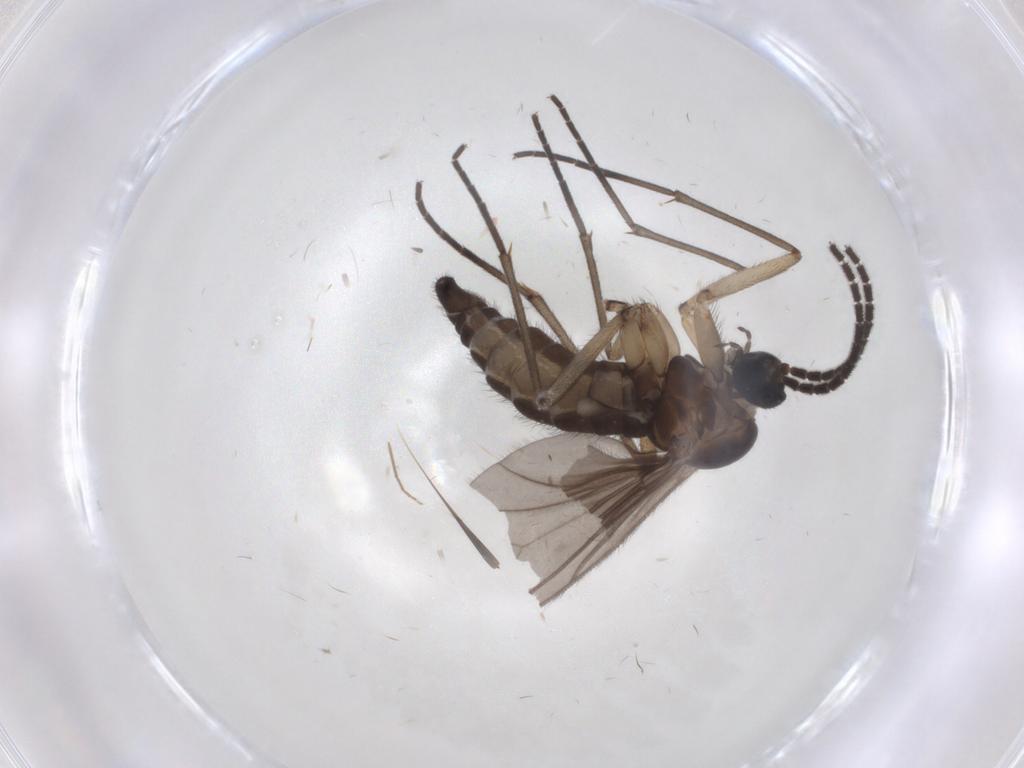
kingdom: Animalia
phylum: Arthropoda
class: Insecta
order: Diptera
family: Sciaridae
